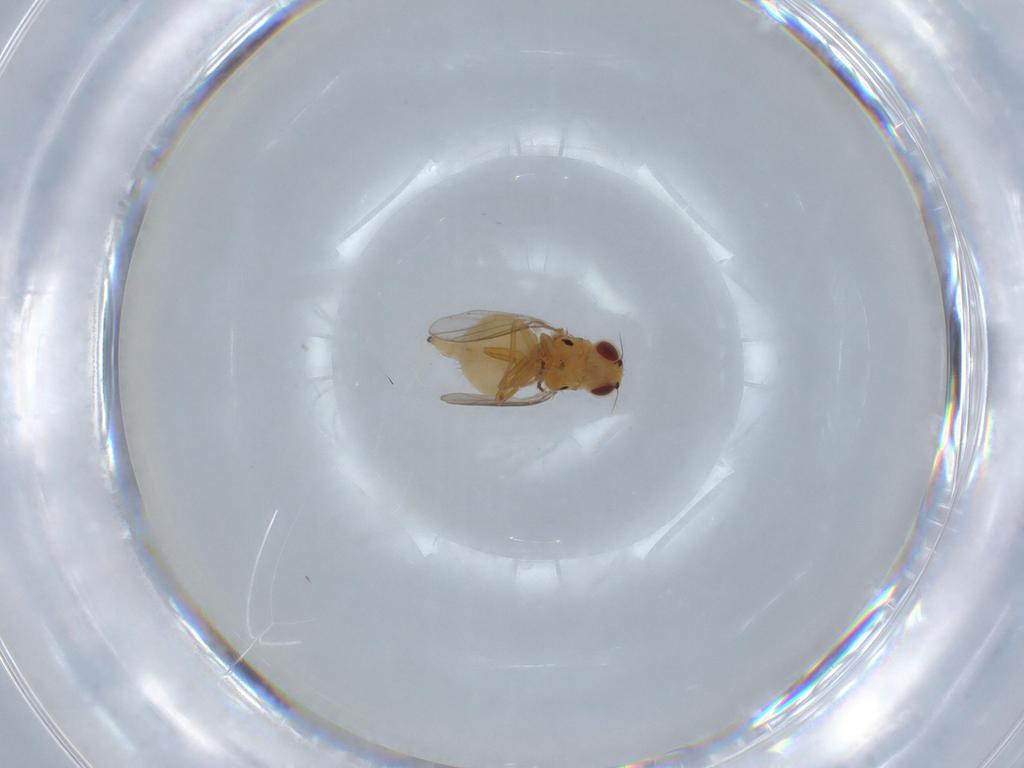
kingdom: Animalia
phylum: Arthropoda
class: Insecta
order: Diptera
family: Chloropidae
